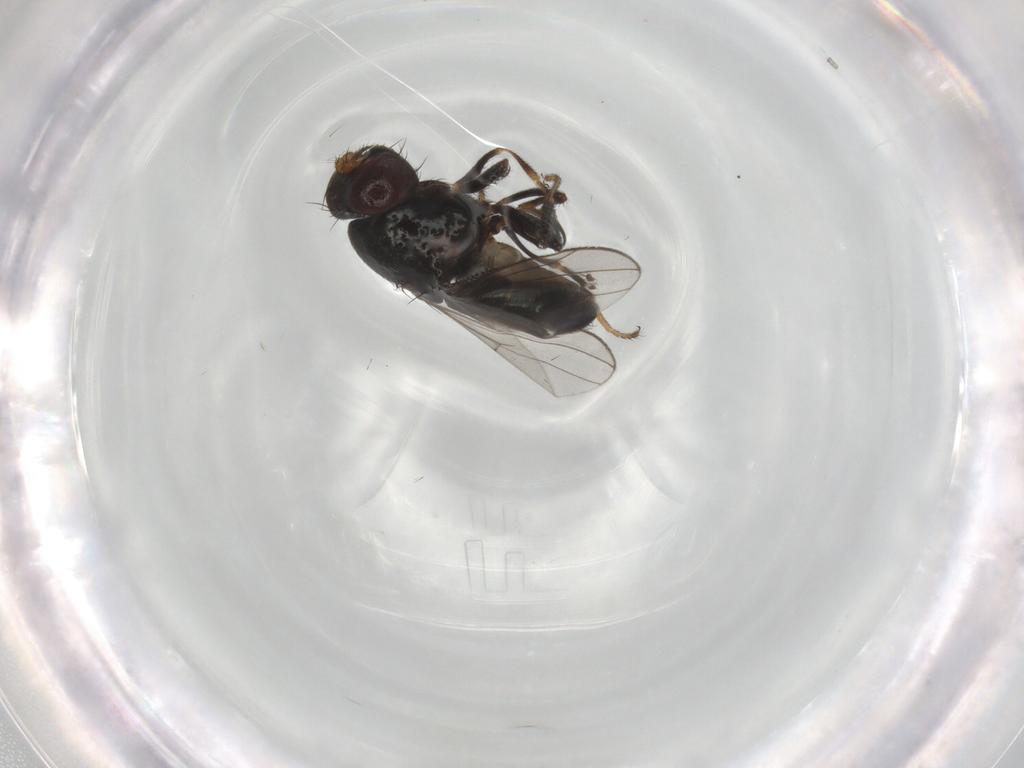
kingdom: Animalia
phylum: Arthropoda
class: Insecta
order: Diptera
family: Ephydridae
